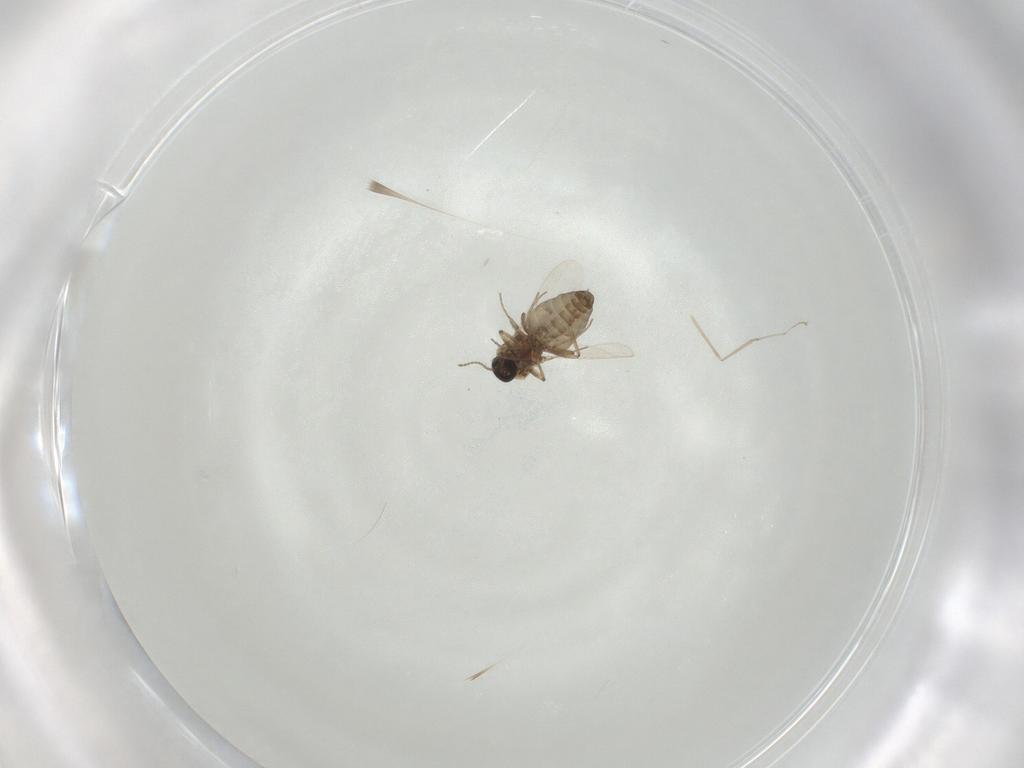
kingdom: Animalia
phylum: Arthropoda
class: Insecta
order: Diptera
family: Ceratopogonidae
